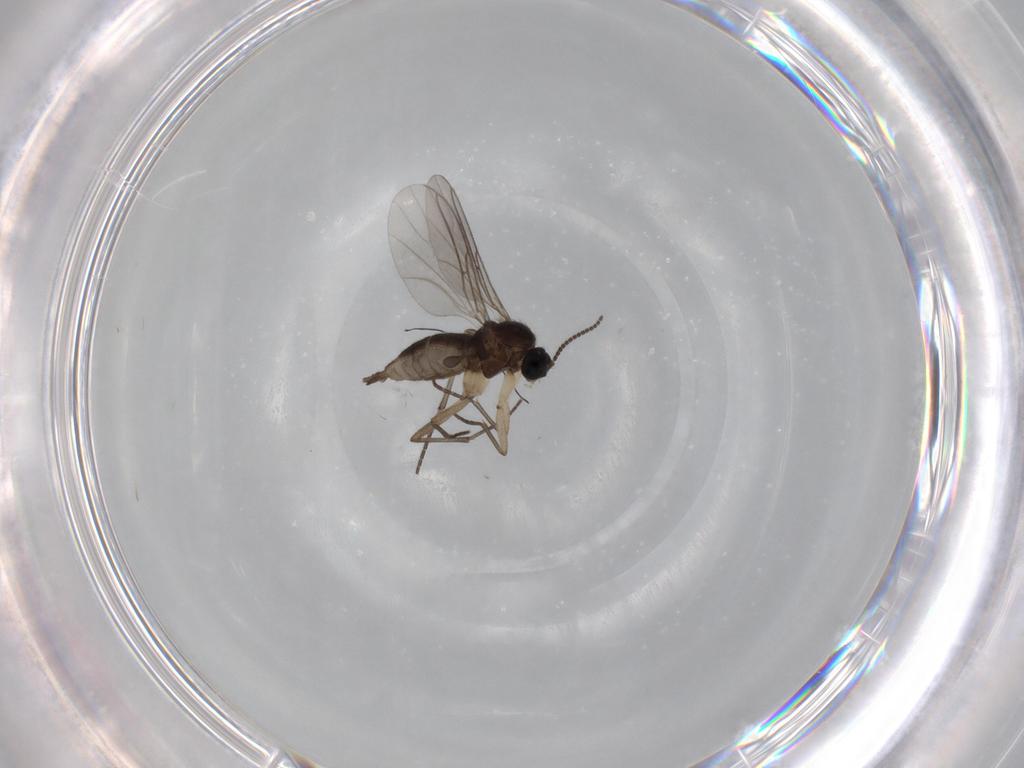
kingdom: Animalia
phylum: Arthropoda
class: Insecta
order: Diptera
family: Sciaridae
